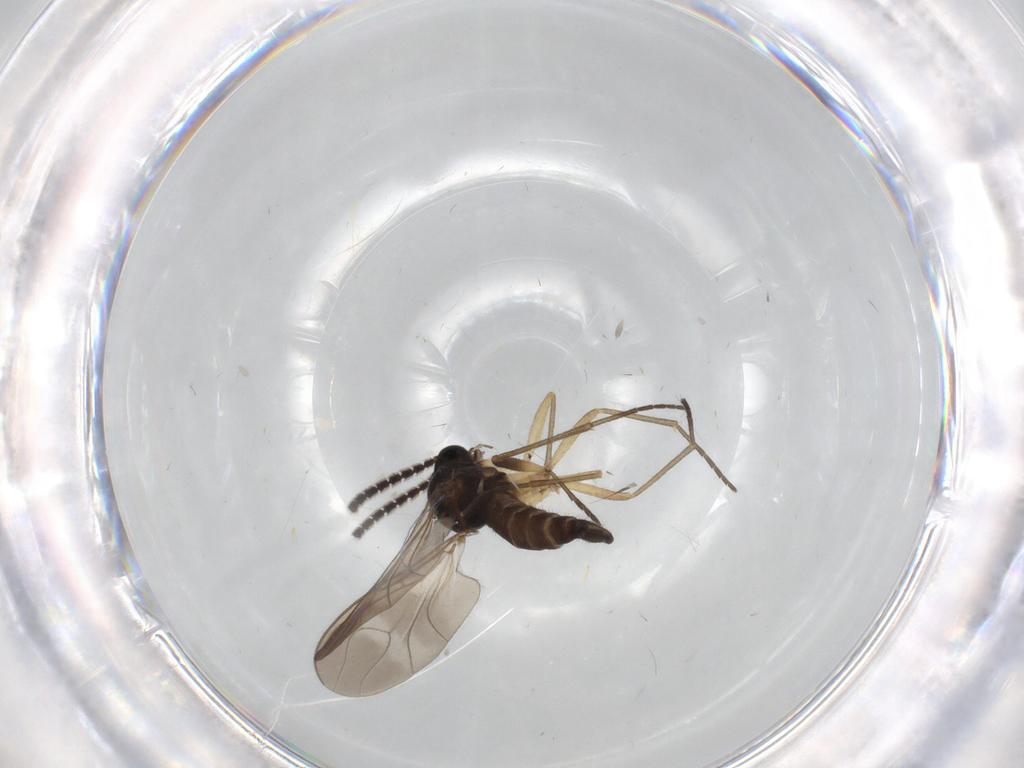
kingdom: Animalia
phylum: Arthropoda
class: Insecta
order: Diptera
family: Sciaridae
